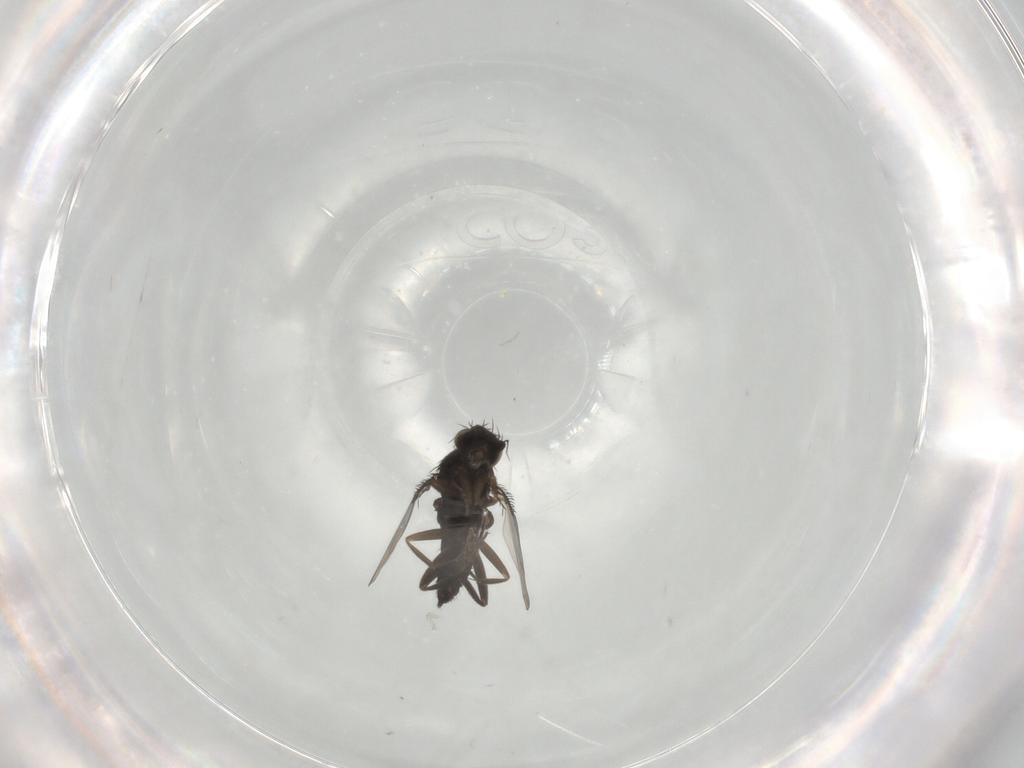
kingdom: Animalia
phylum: Arthropoda
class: Insecta
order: Diptera
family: Phoridae
